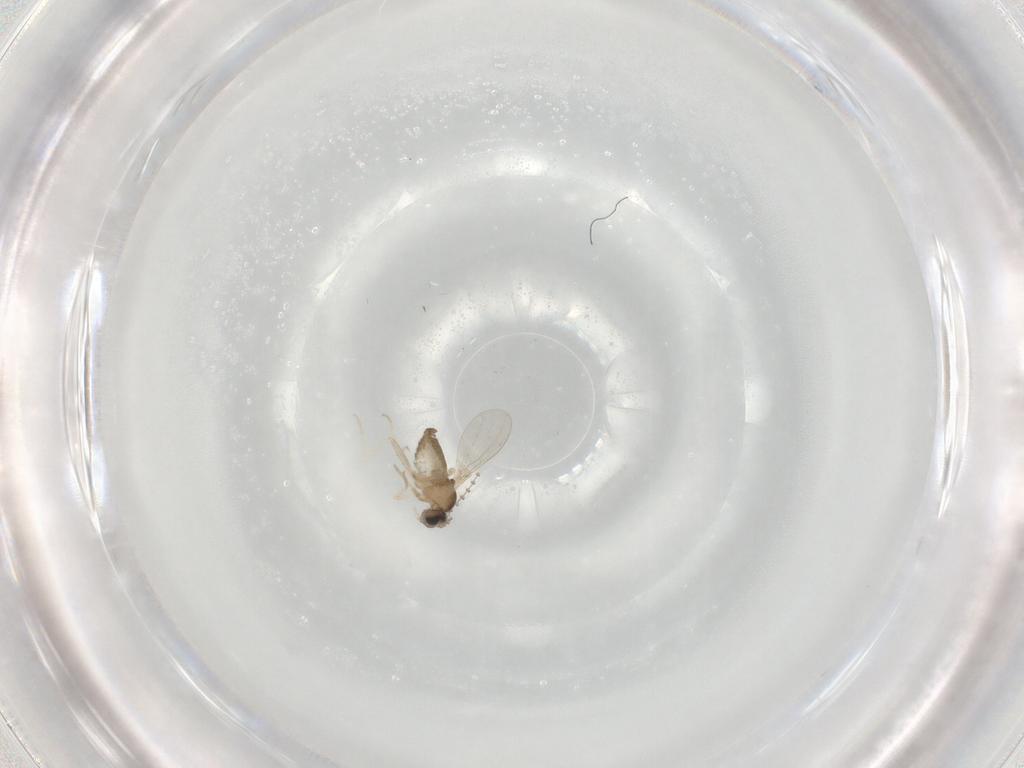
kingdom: Animalia
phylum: Arthropoda
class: Insecta
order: Diptera
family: Cecidomyiidae
